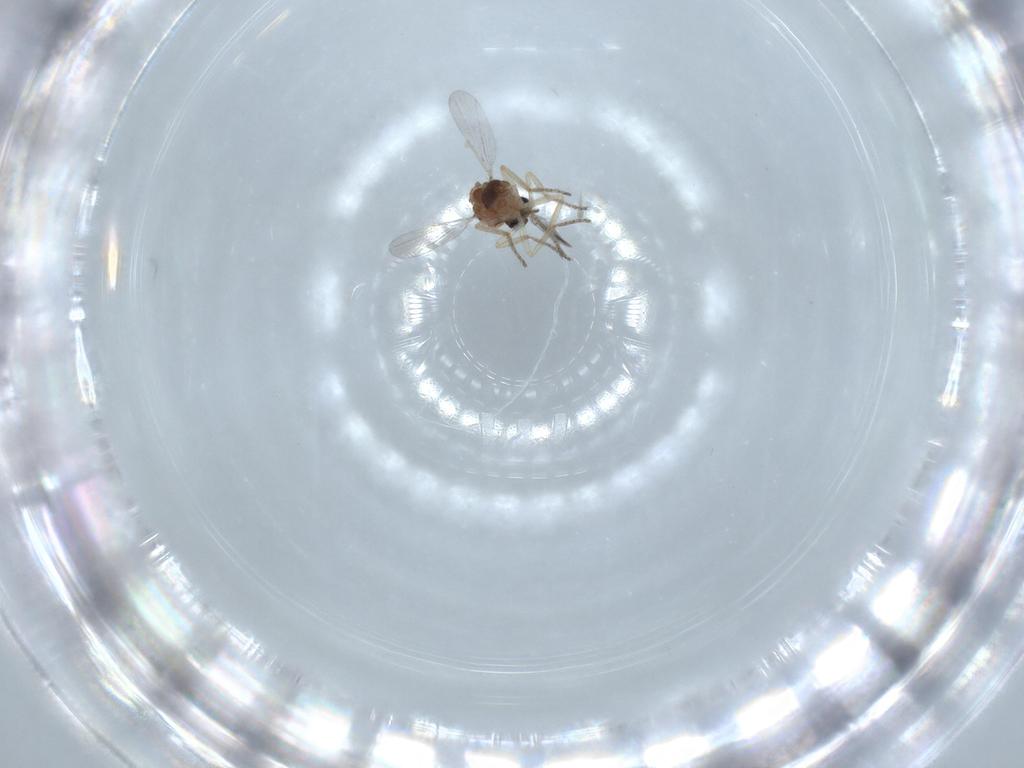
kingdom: Animalia
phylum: Arthropoda
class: Insecta
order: Diptera
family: Ceratopogonidae
